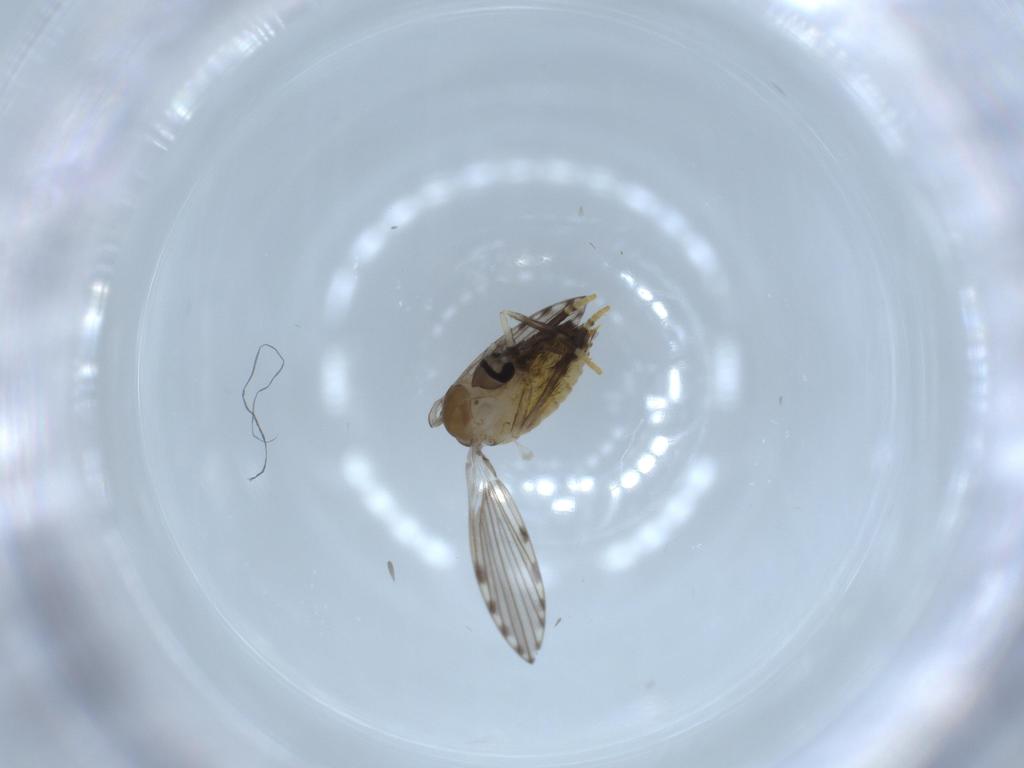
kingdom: Animalia
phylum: Arthropoda
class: Insecta
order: Diptera
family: Psychodidae
